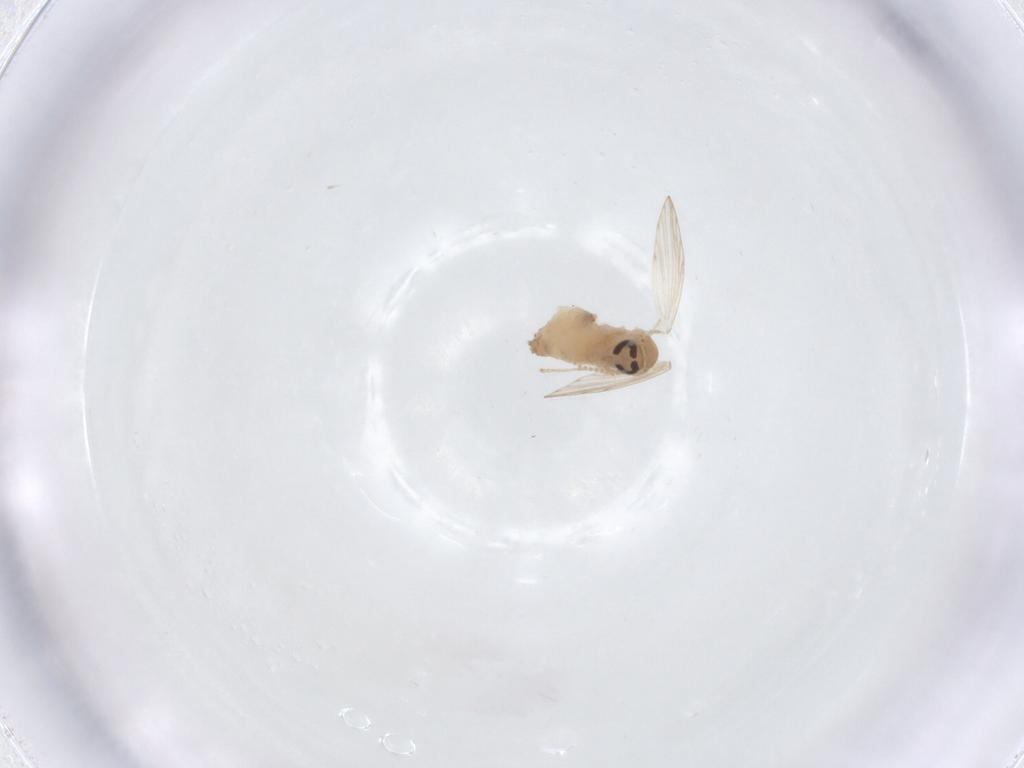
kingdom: Animalia
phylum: Arthropoda
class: Insecta
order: Diptera
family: Psychodidae
